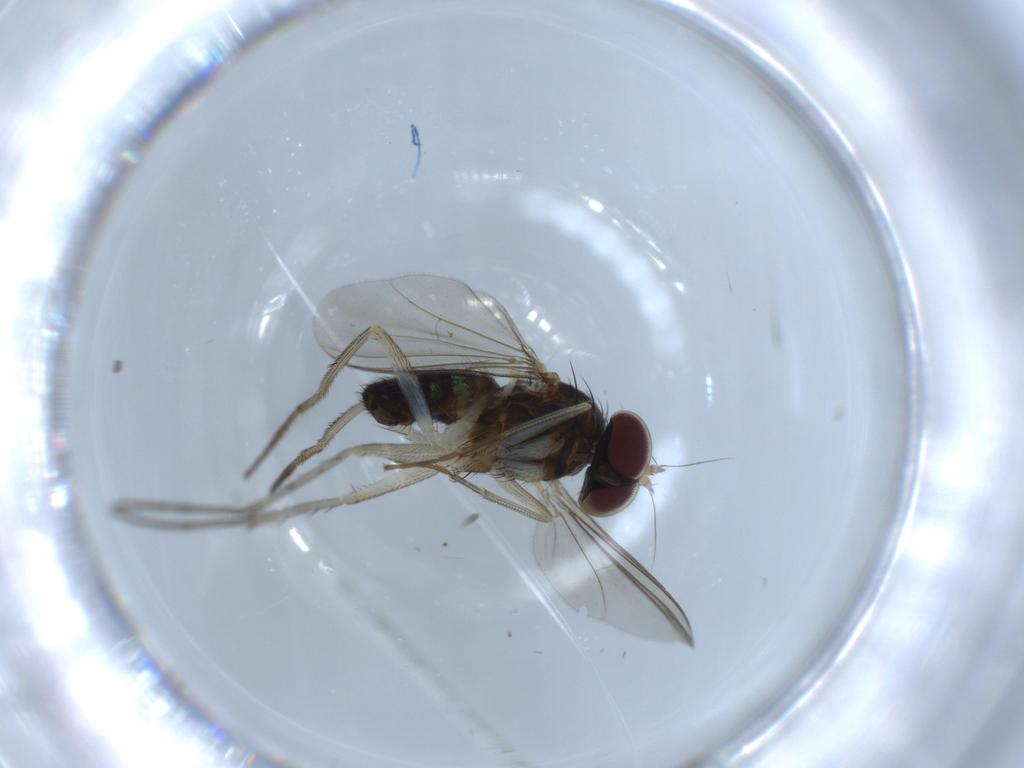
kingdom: Animalia
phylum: Arthropoda
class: Insecta
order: Diptera
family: Dolichopodidae
